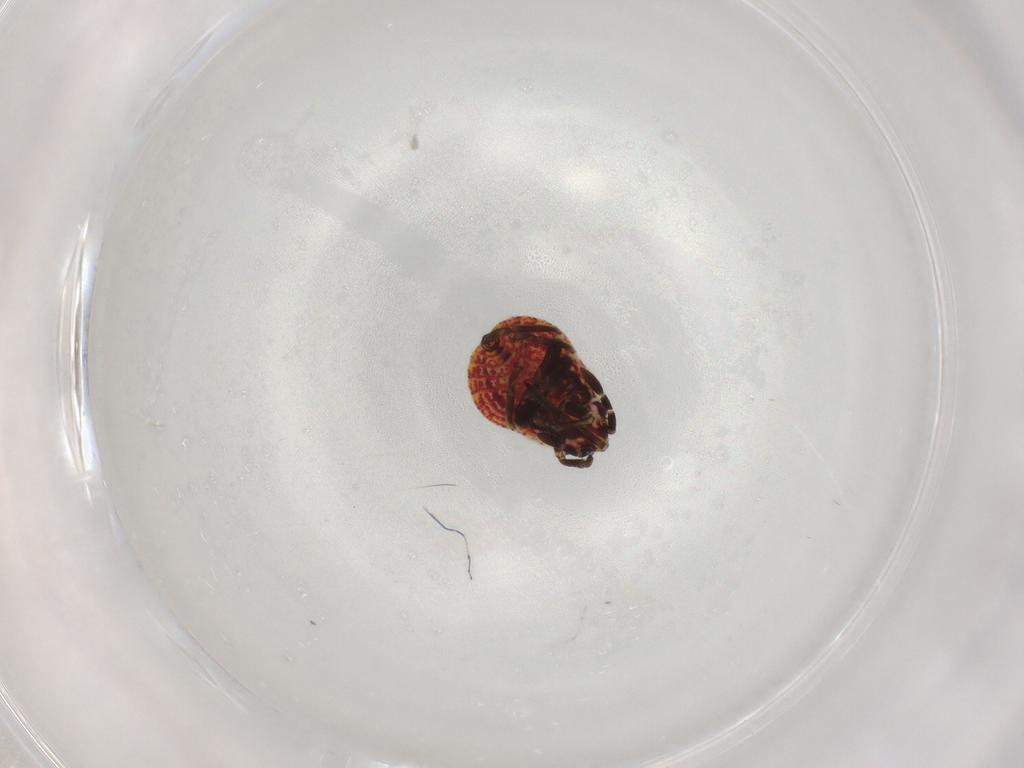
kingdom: Animalia
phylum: Arthropoda
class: Insecta
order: Hemiptera
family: Lygaeidae
